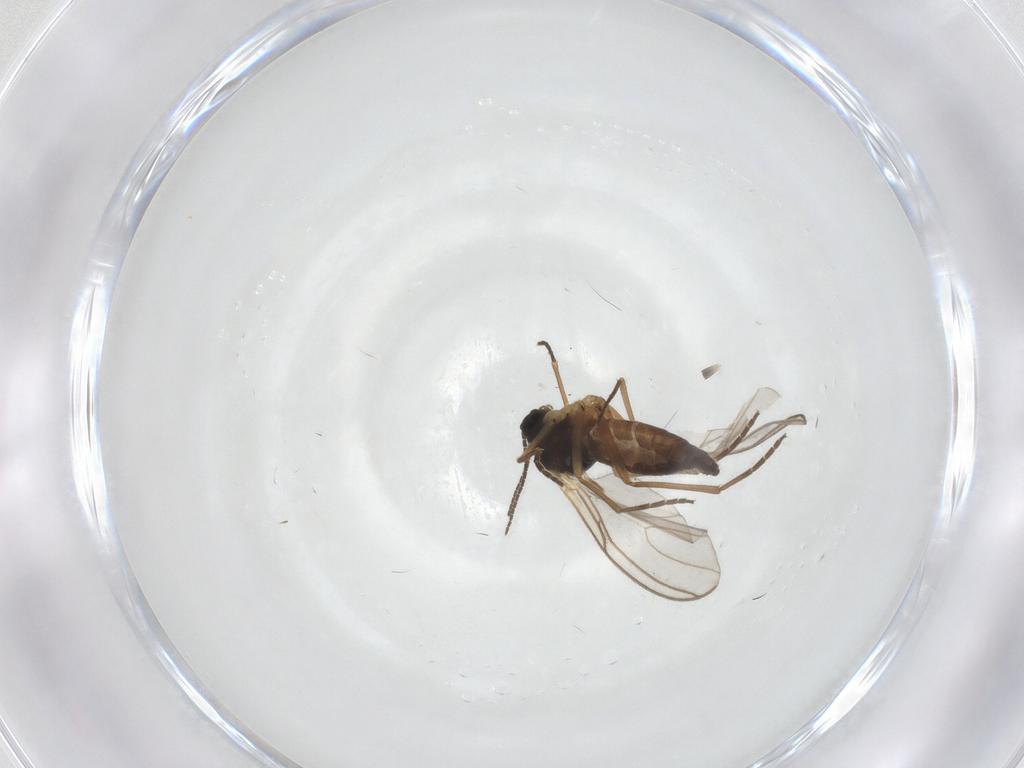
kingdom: Animalia
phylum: Arthropoda
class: Insecta
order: Diptera
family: Sciaridae
